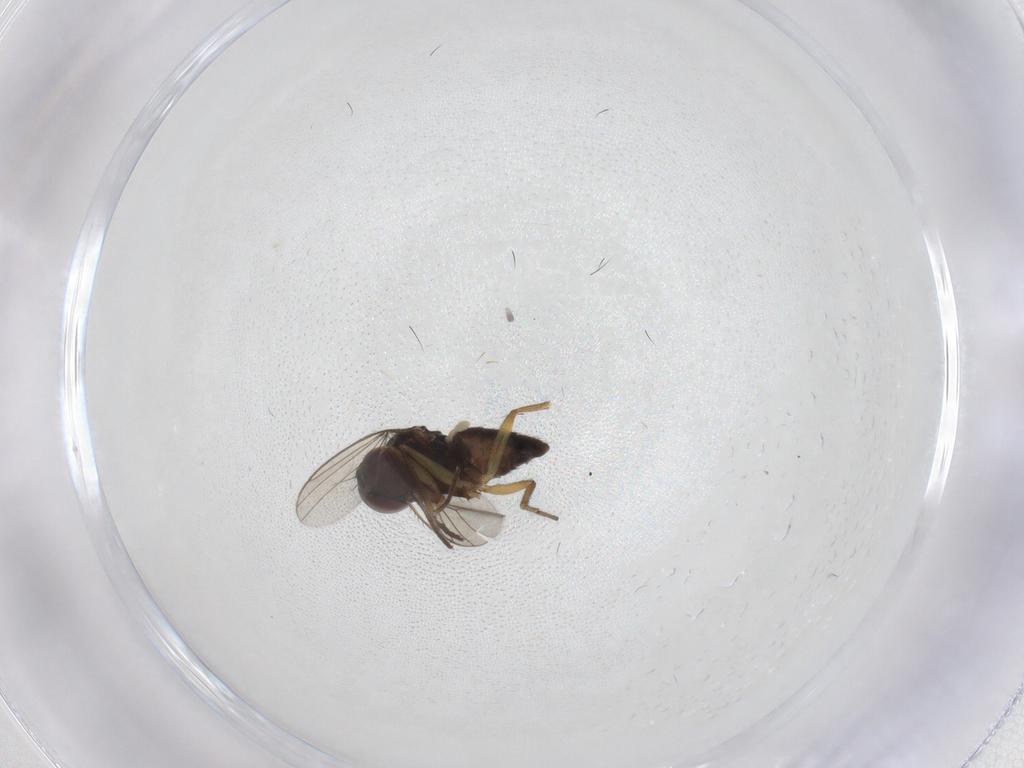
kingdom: Animalia
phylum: Arthropoda
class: Insecta
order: Diptera
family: Dolichopodidae
